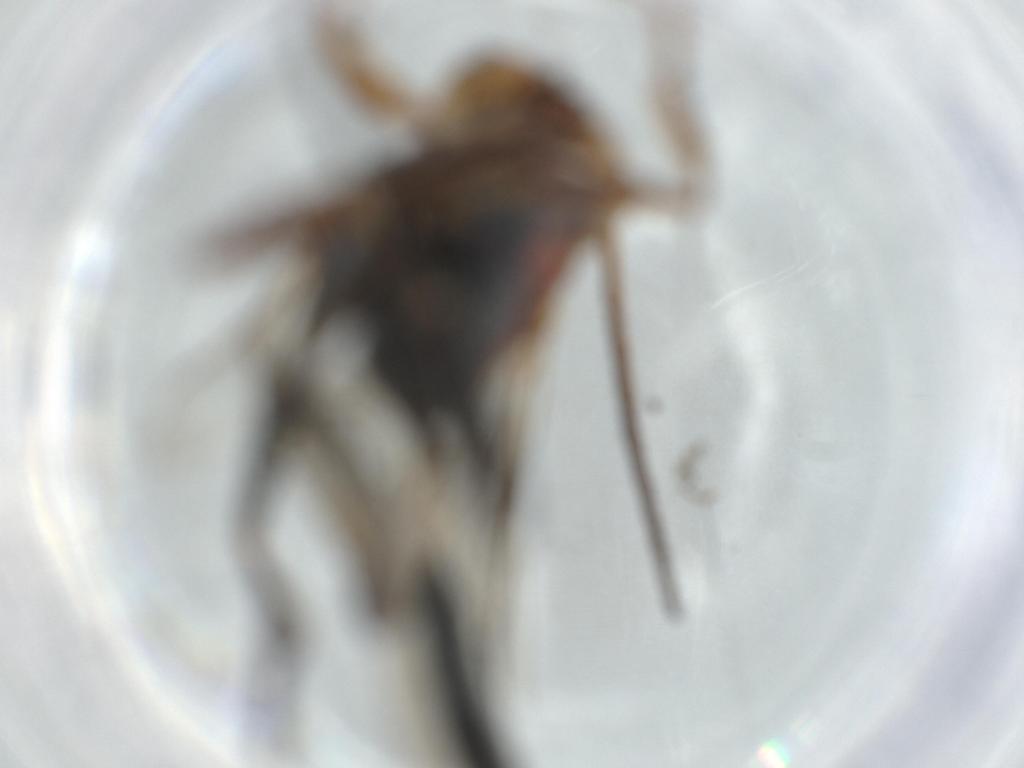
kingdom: Animalia
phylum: Arthropoda
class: Insecta
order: Hymenoptera
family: Evaniidae
